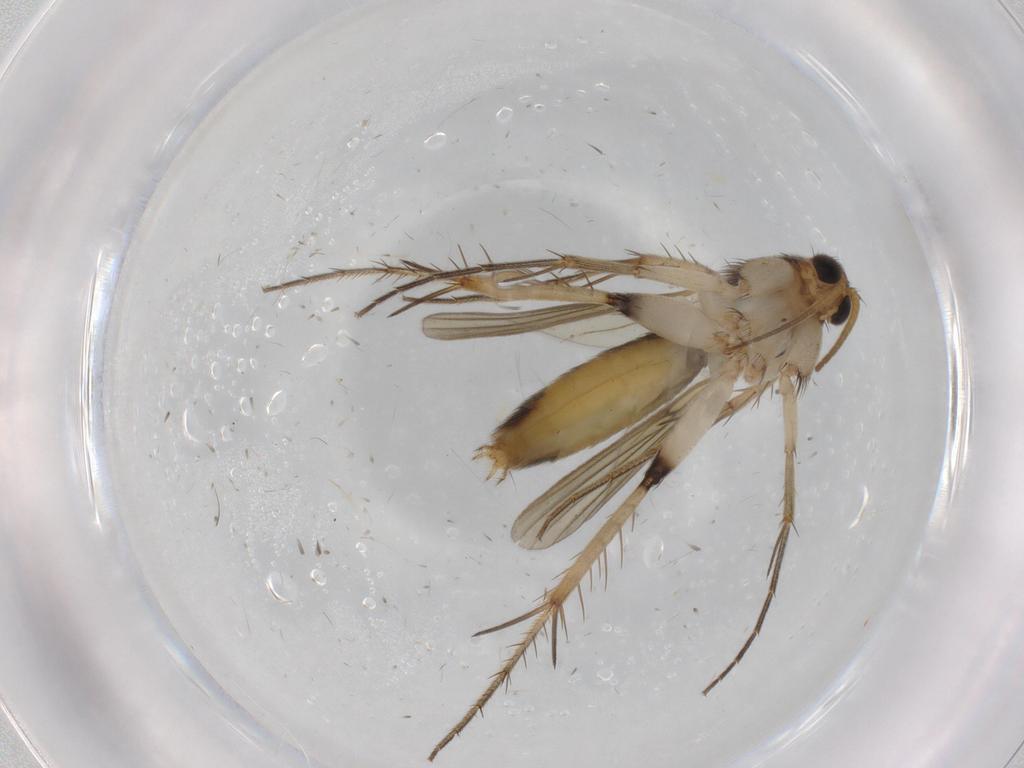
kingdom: Animalia
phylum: Arthropoda
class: Insecta
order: Diptera
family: Mycetophilidae
